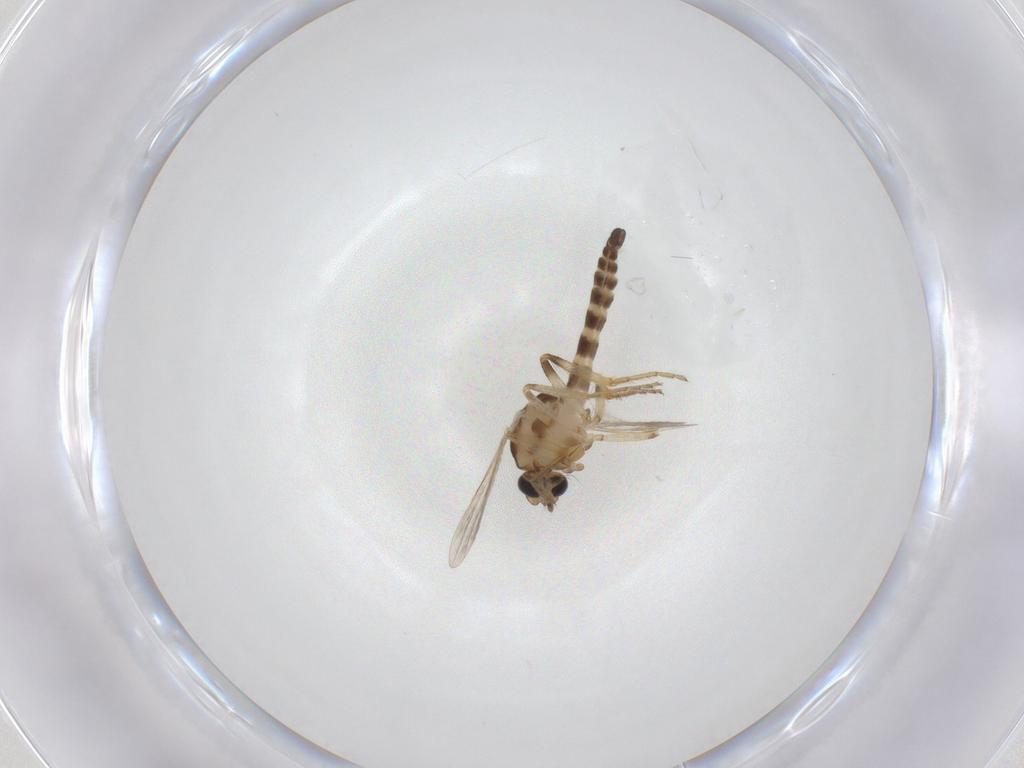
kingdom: Animalia
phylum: Arthropoda
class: Insecta
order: Diptera
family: Ceratopogonidae
